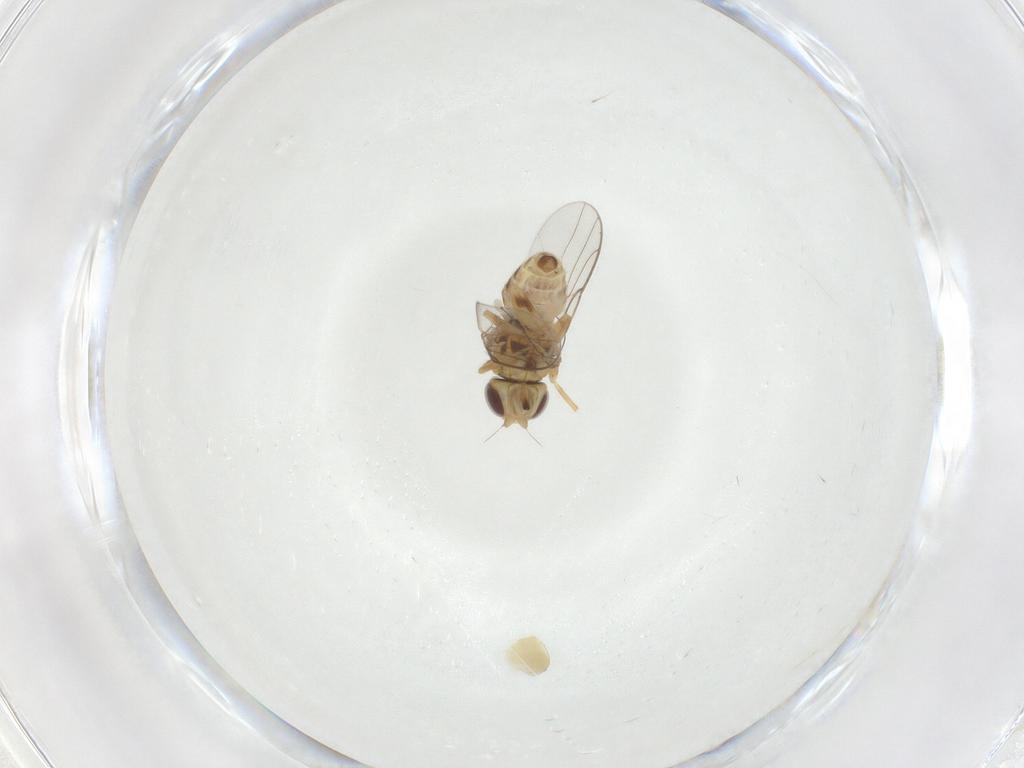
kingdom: Animalia
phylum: Arthropoda
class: Insecta
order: Diptera
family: Chloropidae
